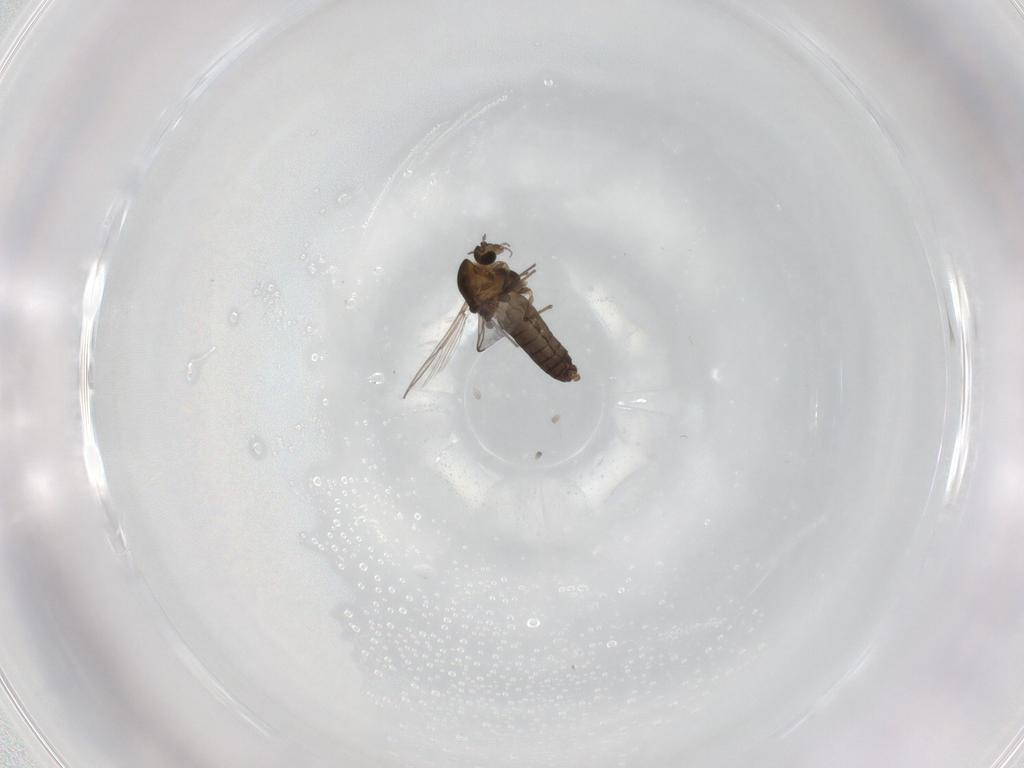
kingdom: Animalia
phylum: Arthropoda
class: Insecta
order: Diptera
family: Chironomidae
